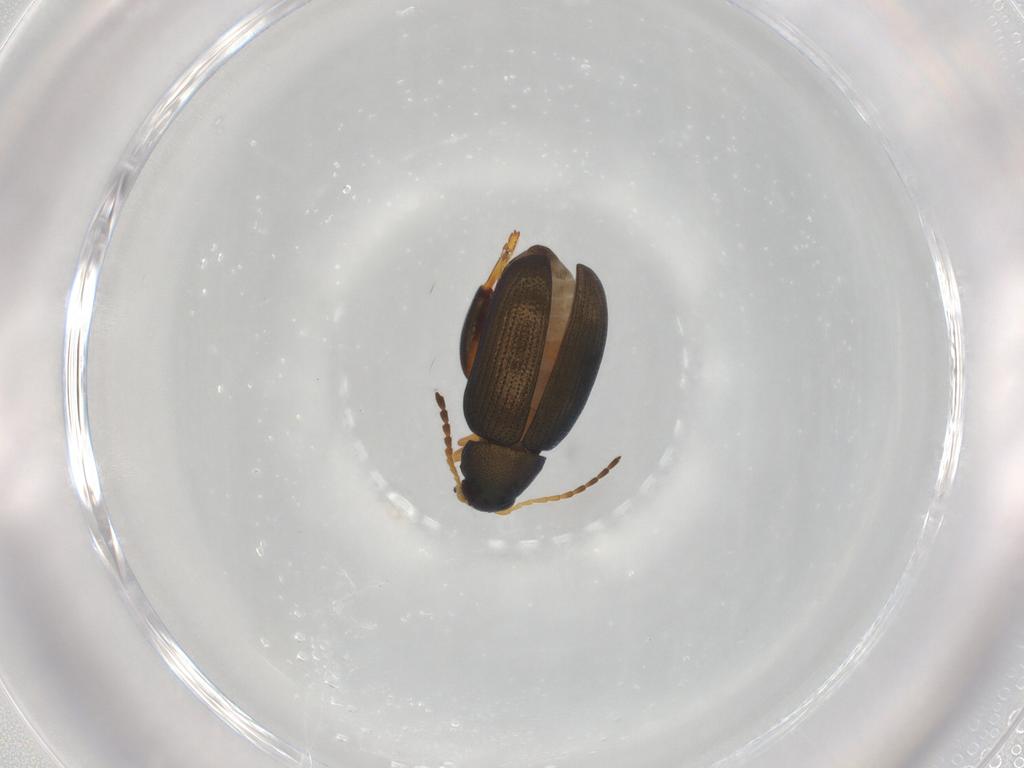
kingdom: Animalia
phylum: Arthropoda
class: Insecta
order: Coleoptera
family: Chrysomelidae
